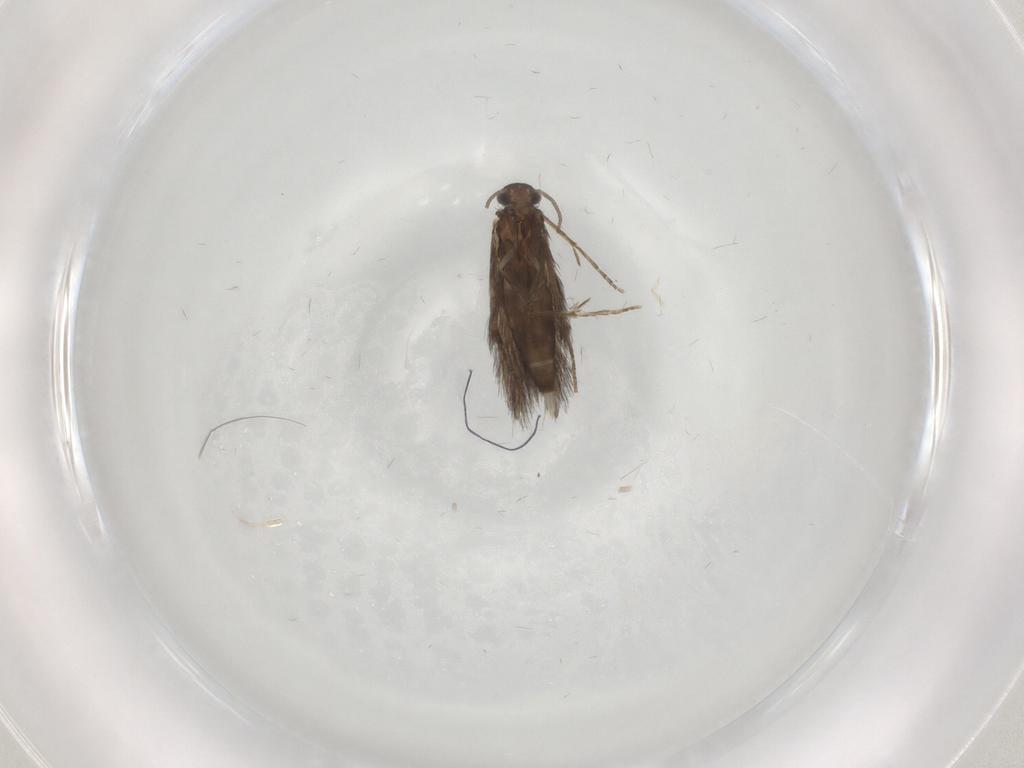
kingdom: Animalia
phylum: Arthropoda
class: Insecta
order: Trichoptera
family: Hydroptilidae
